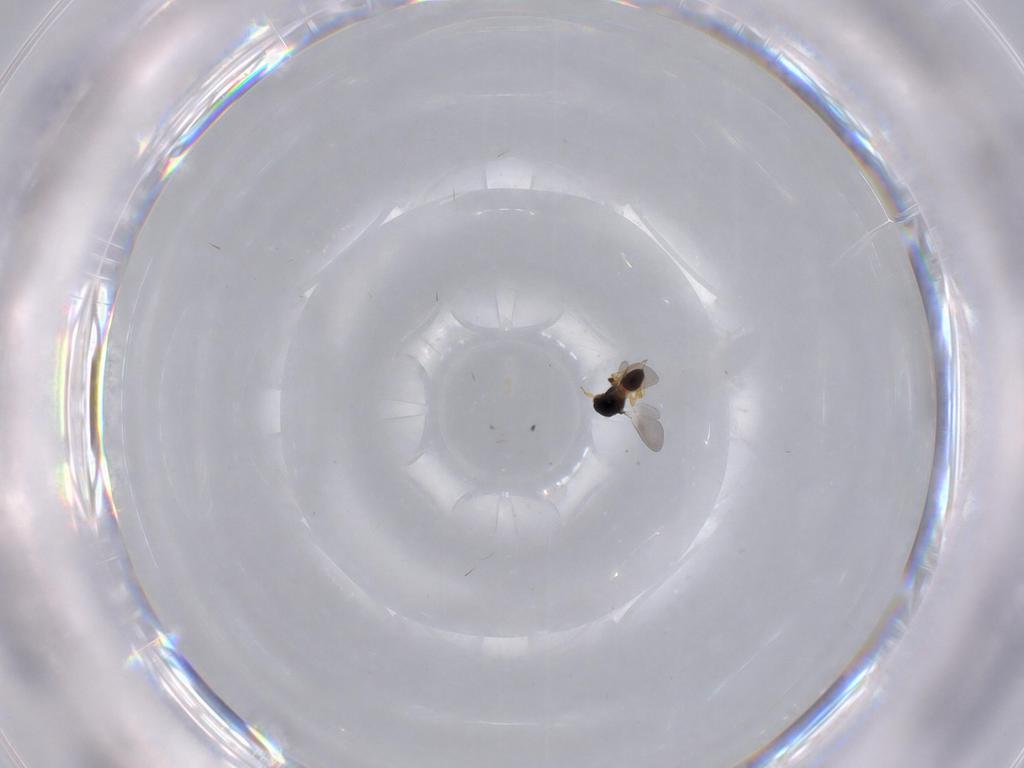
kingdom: Animalia
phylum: Arthropoda
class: Insecta
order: Hymenoptera
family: Platygastridae
